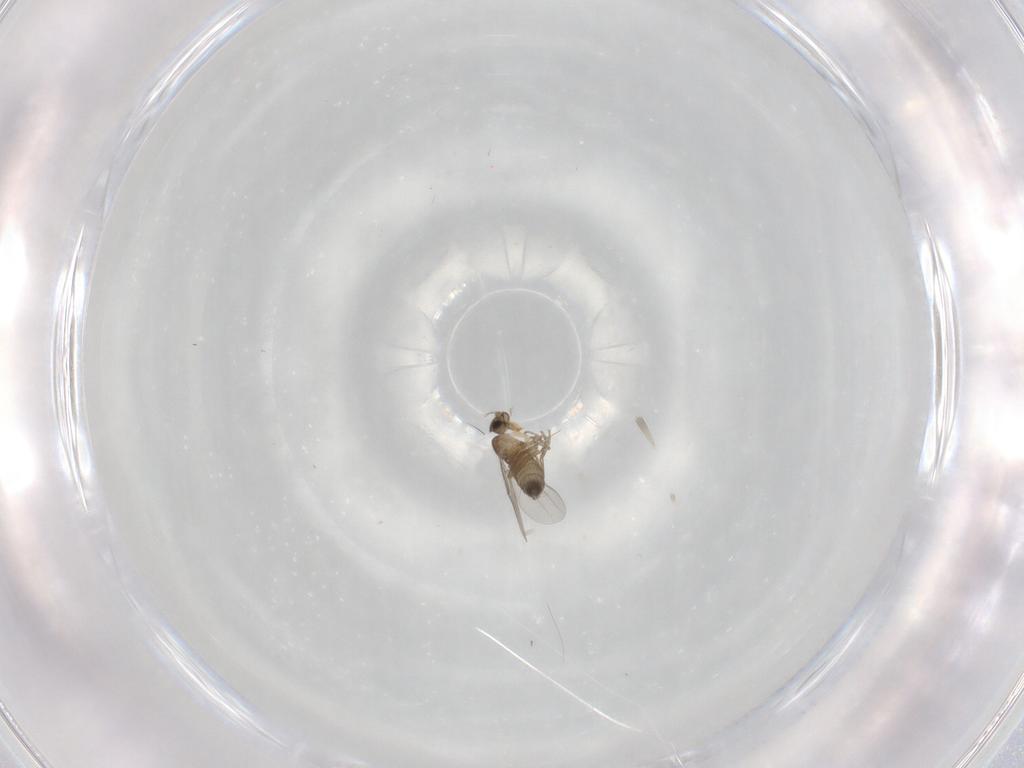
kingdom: Animalia
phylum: Arthropoda
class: Insecta
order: Diptera
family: Phoridae
